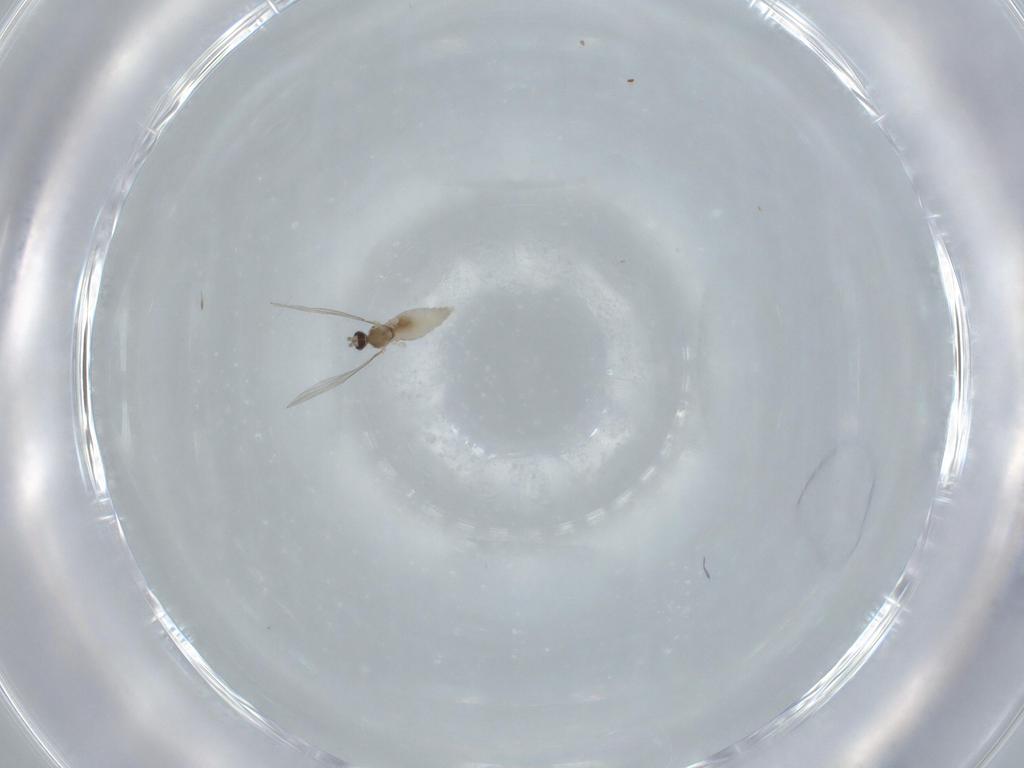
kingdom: Animalia
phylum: Arthropoda
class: Insecta
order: Diptera
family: Cecidomyiidae
